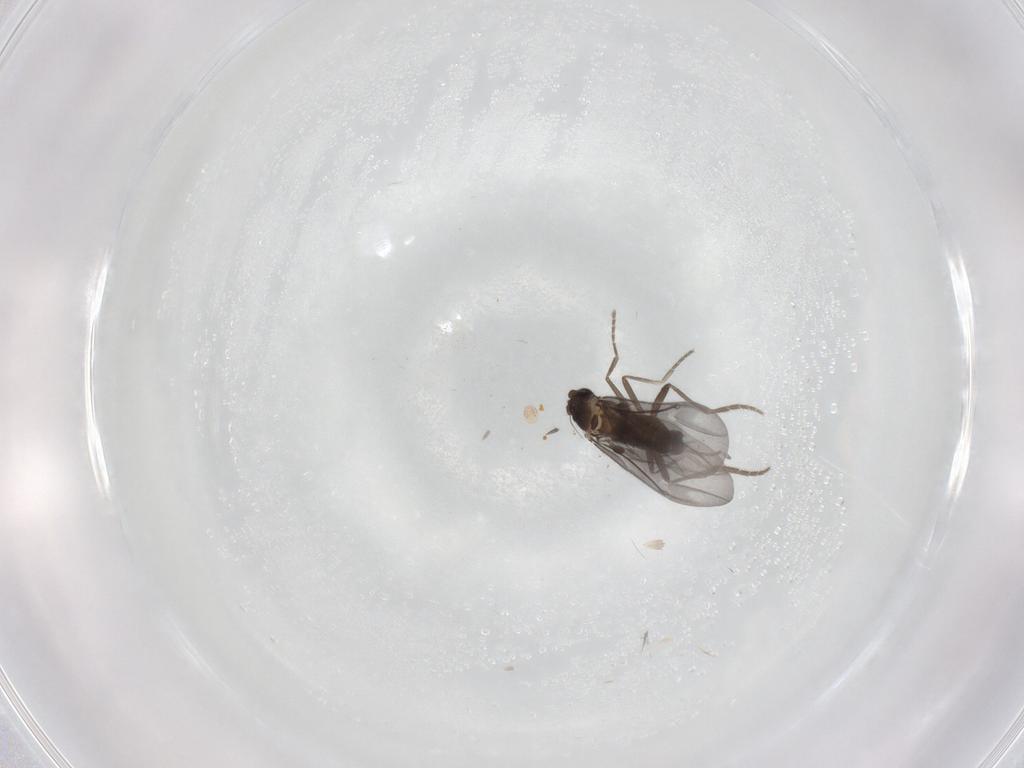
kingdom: Animalia
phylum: Arthropoda
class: Insecta
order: Diptera
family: Phoridae
